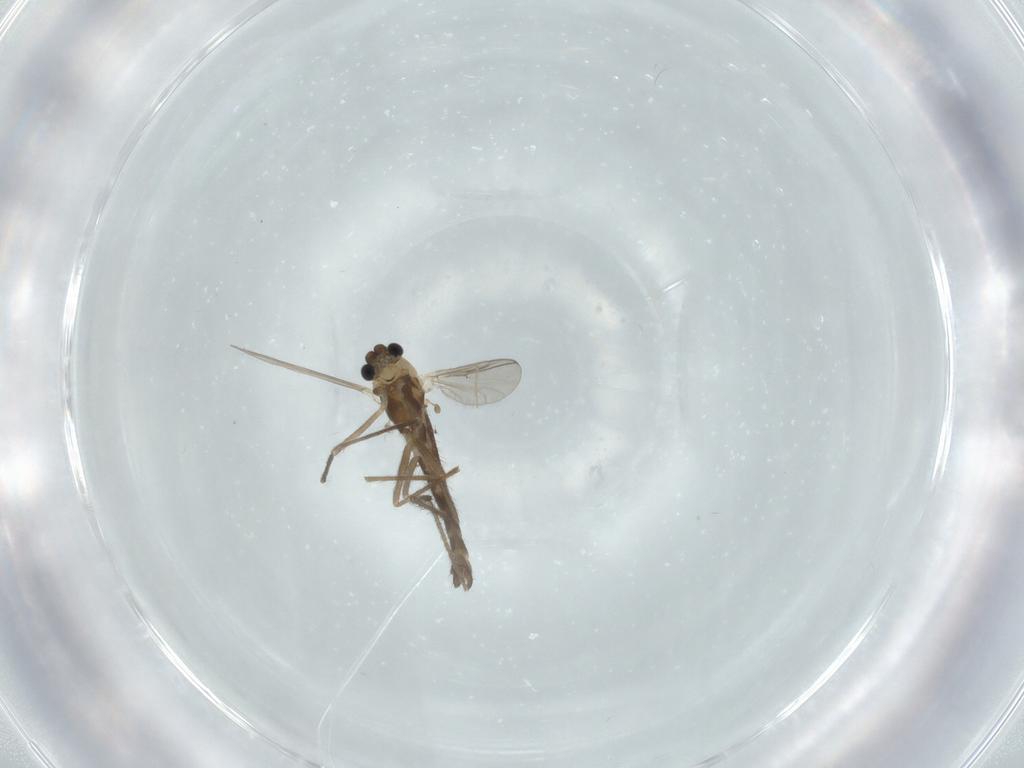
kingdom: Animalia
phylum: Arthropoda
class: Insecta
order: Diptera
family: Chironomidae
